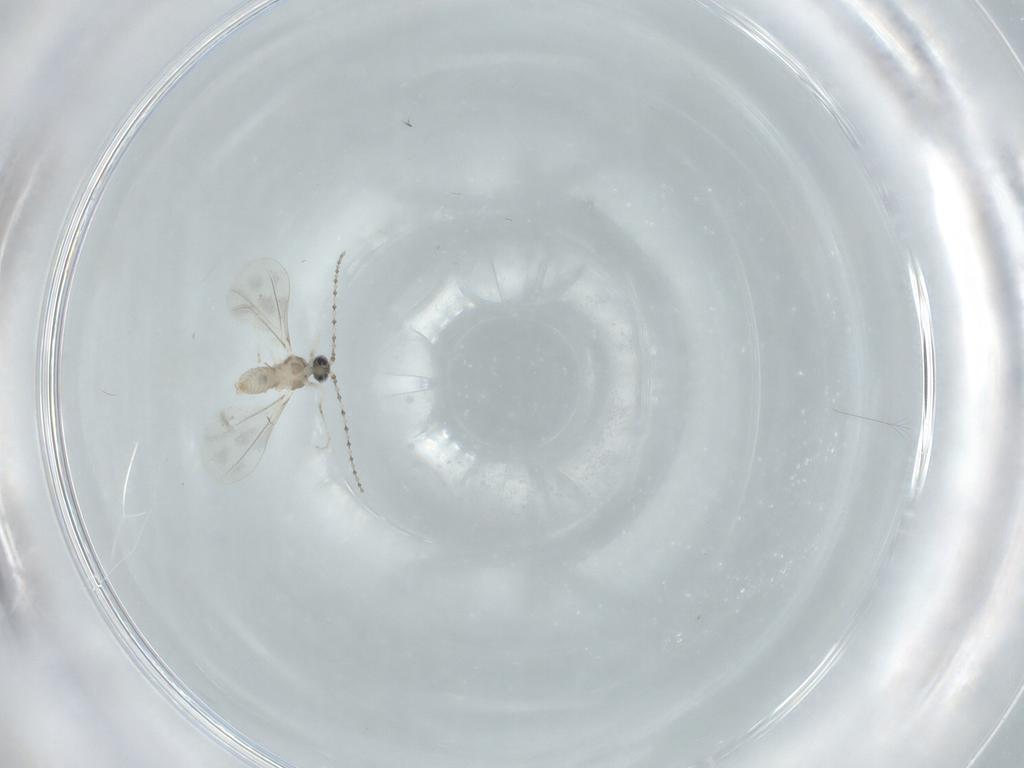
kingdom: Animalia
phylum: Arthropoda
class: Insecta
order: Diptera
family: Cecidomyiidae
